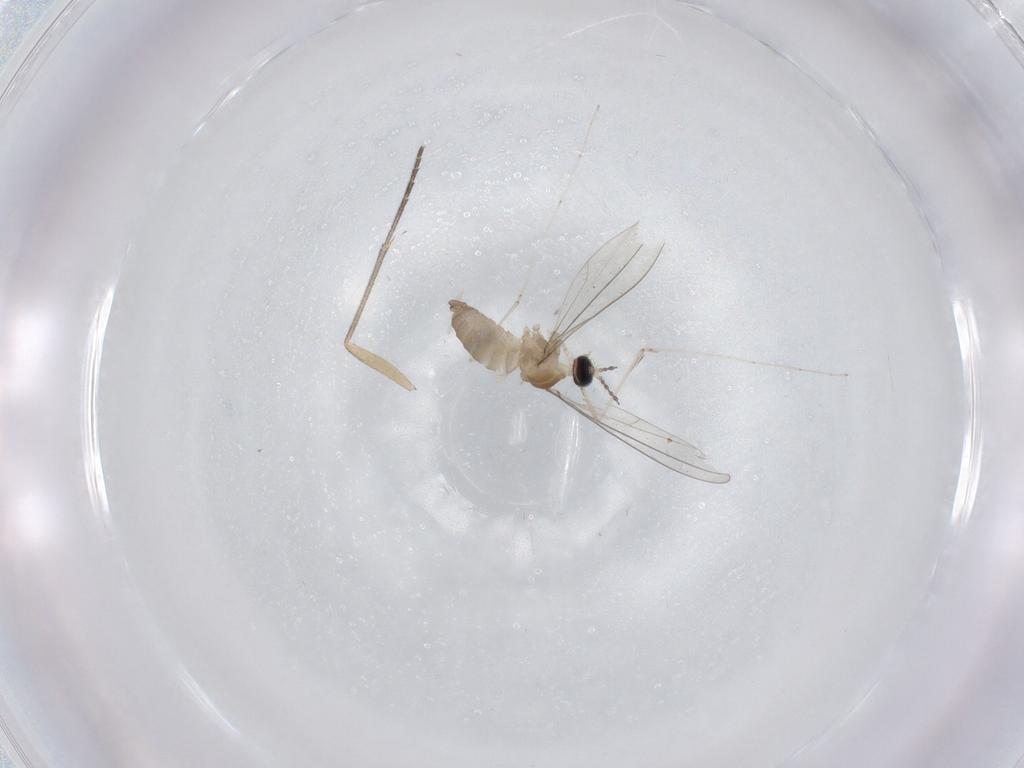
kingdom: Animalia
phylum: Arthropoda
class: Insecta
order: Diptera
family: Cecidomyiidae
